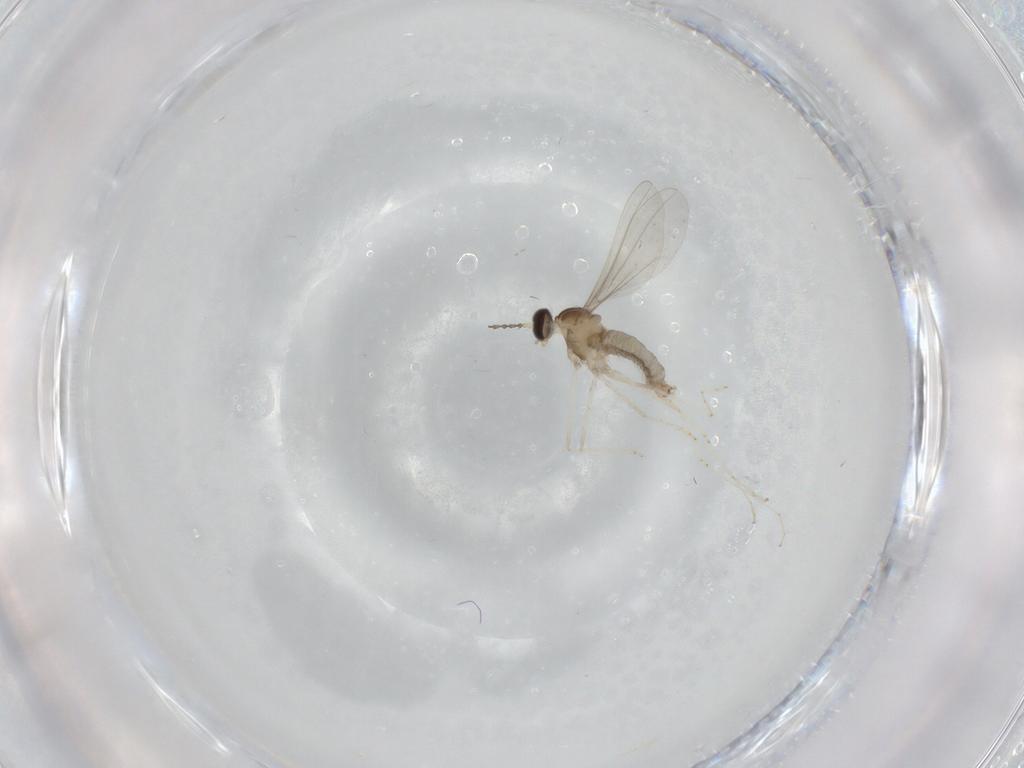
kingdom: Animalia
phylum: Arthropoda
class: Insecta
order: Diptera
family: Cecidomyiidae
